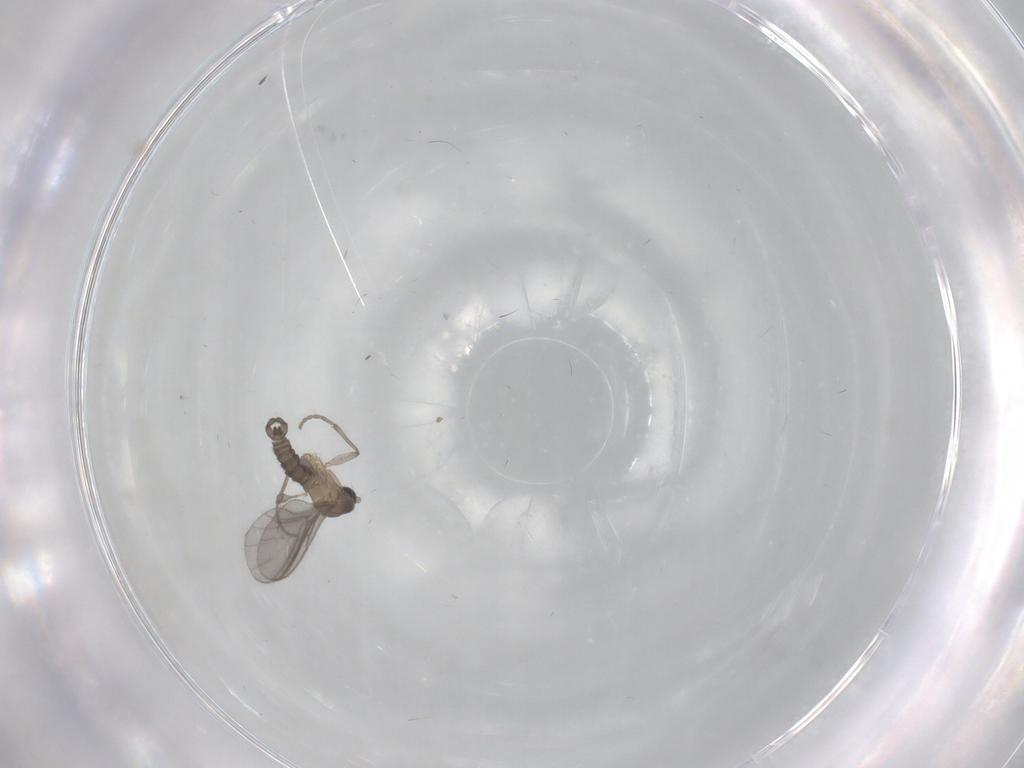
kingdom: Animalia
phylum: Arthropoda
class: Insecta
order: Diptera
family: Sciaridae
